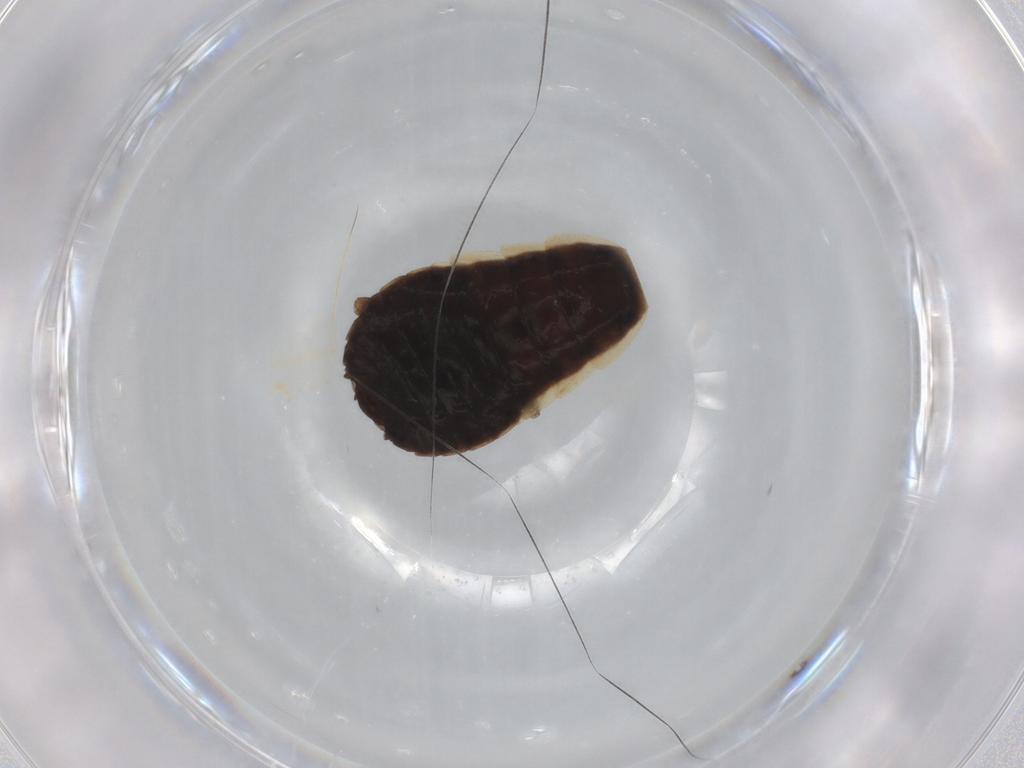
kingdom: Animalia
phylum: Arthropoda
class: Insecta
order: Blattodea
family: Ectobiidae
